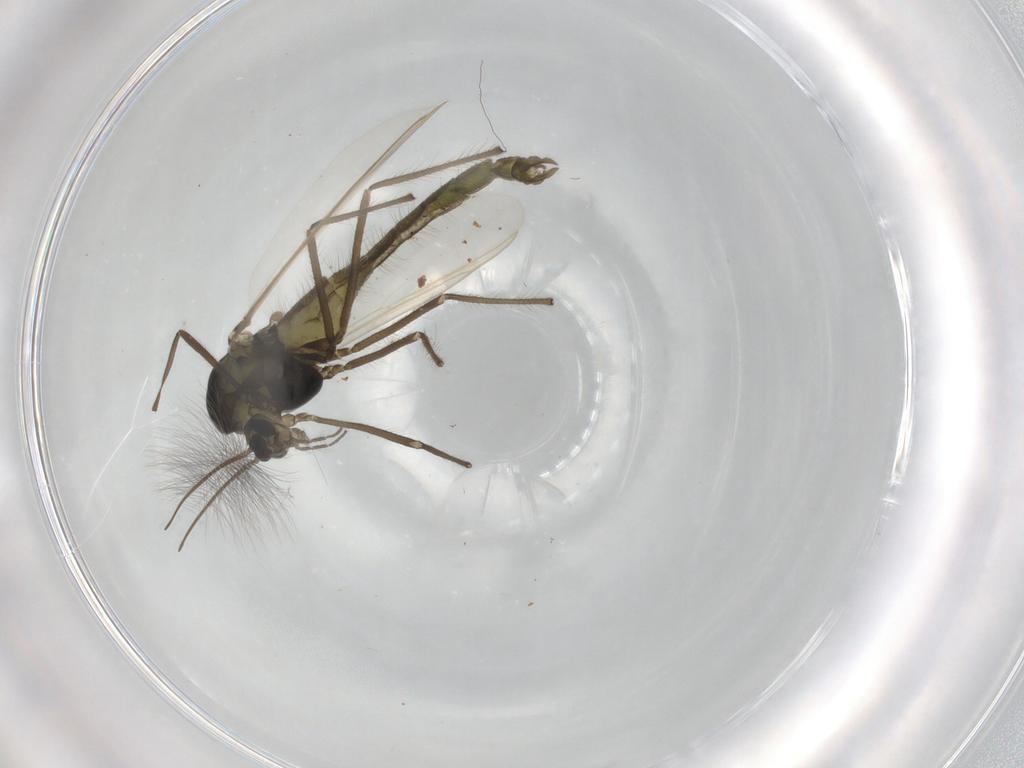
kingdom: Animalia
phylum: Arthropoda
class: Insecta
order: Diptera
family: Chironomidae
